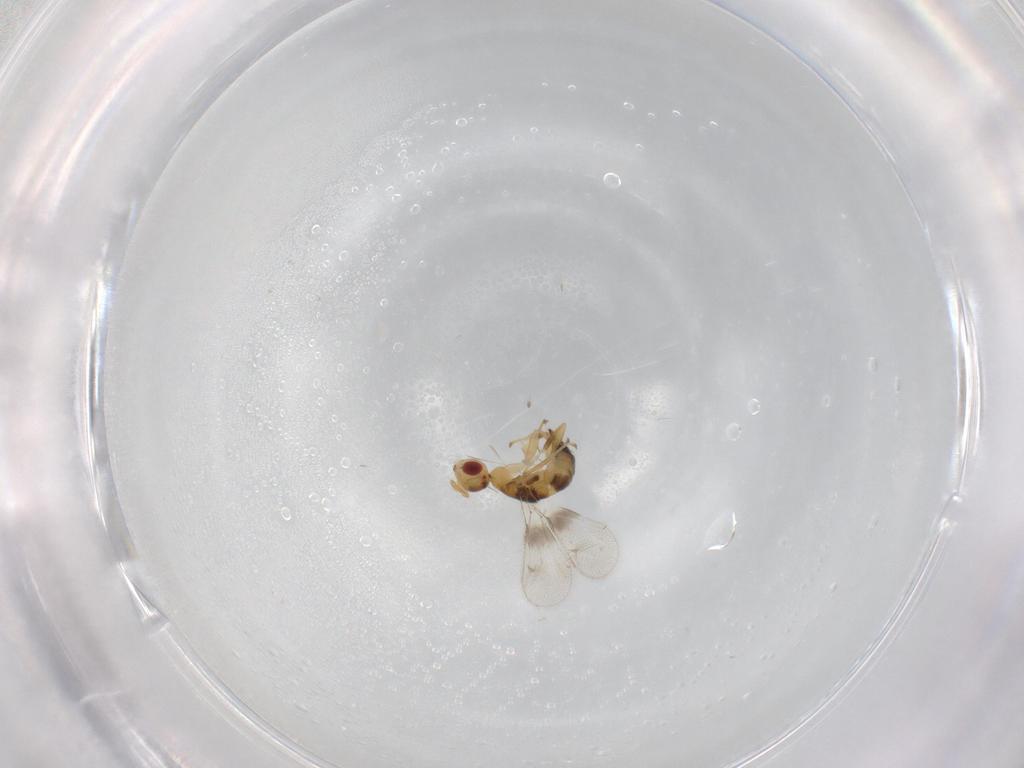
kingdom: Animalia
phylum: Arthropoda
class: Insecta
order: Hymenoptera
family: Torymidae
